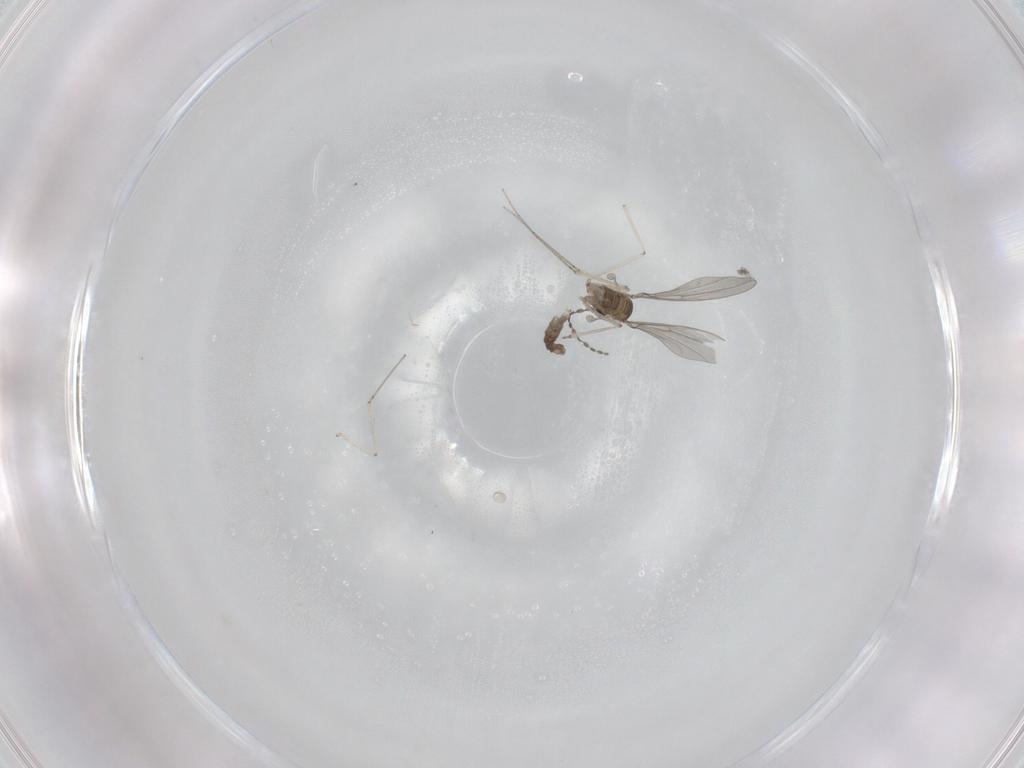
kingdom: Animalia
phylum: Arthropoda
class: Insecta
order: Diptera
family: Cecidomyiidae
